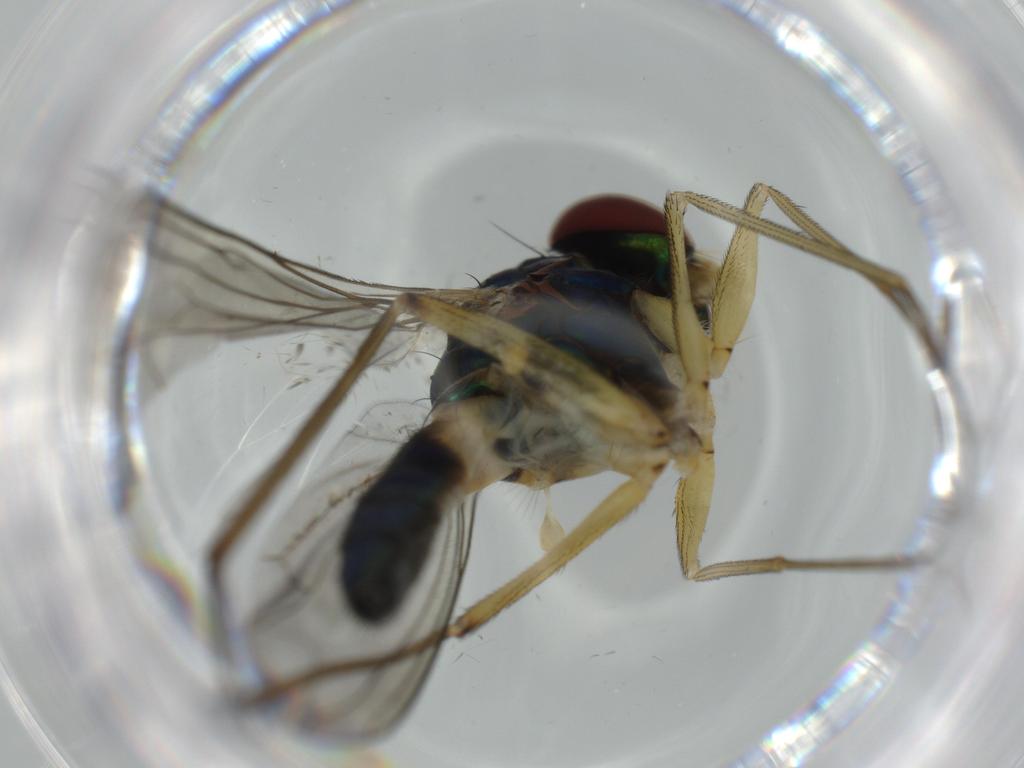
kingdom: Animalia
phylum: Arthropoda
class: Insecta
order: Diptera
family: Dolichopodidae
